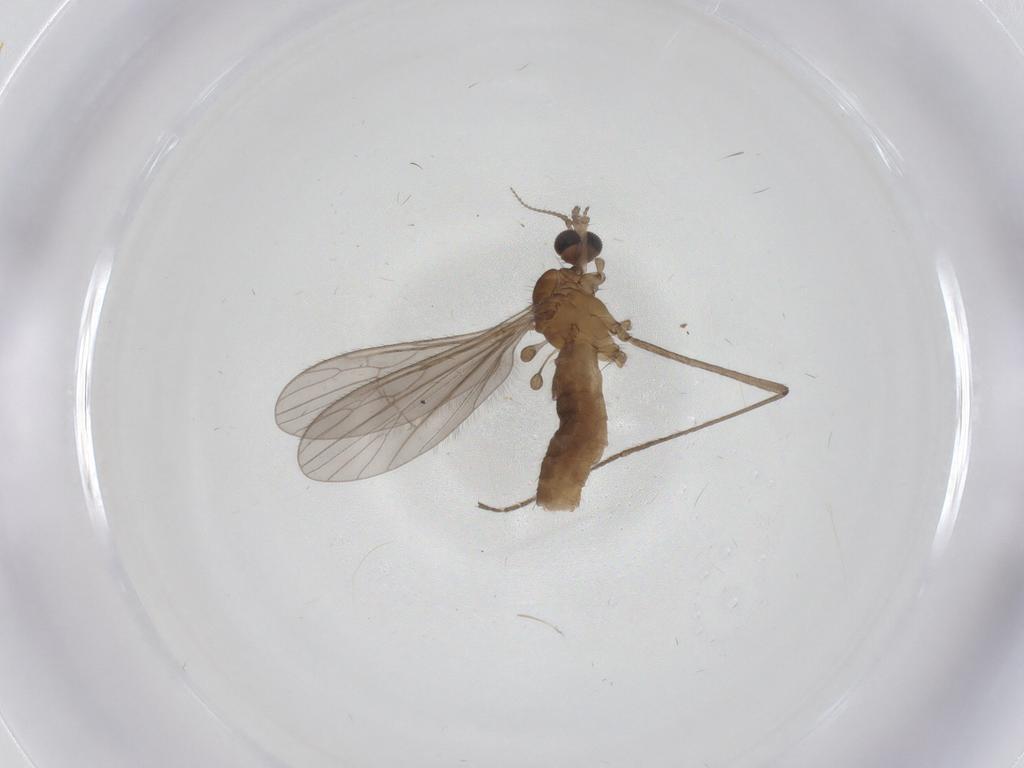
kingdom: Animalia
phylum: Arthropoda
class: Insecta
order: Diptera
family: Limoniidae
